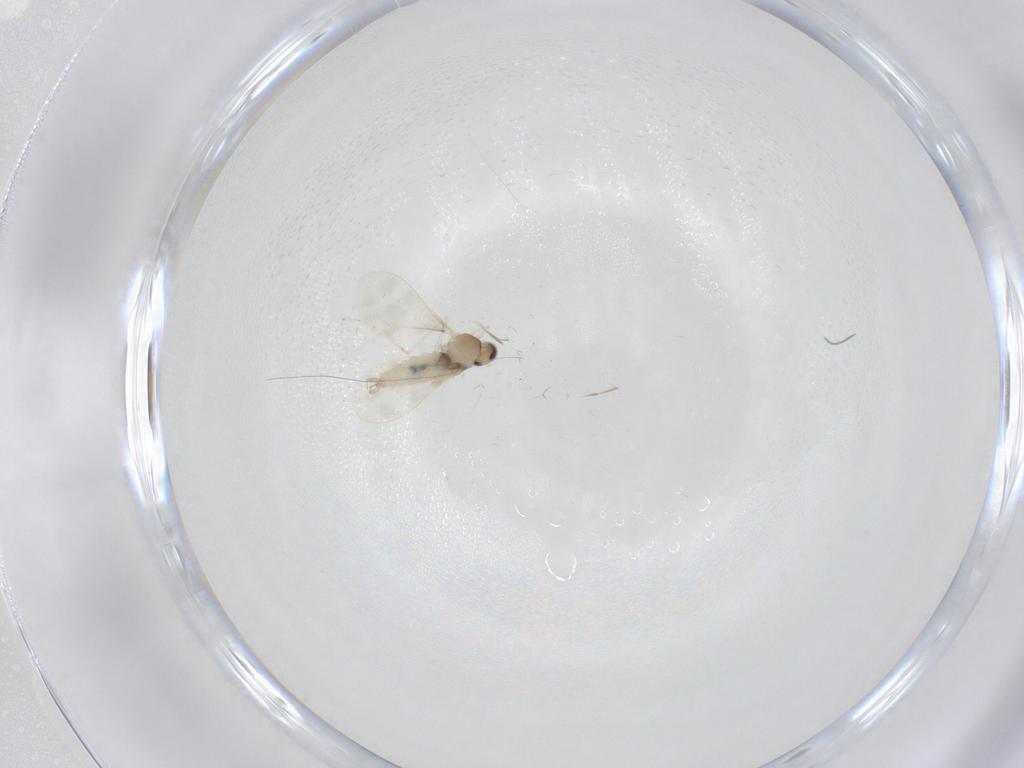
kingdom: Animalia
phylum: Arthropoda
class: Insecta
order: Diptera
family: Cecidomyiidae
